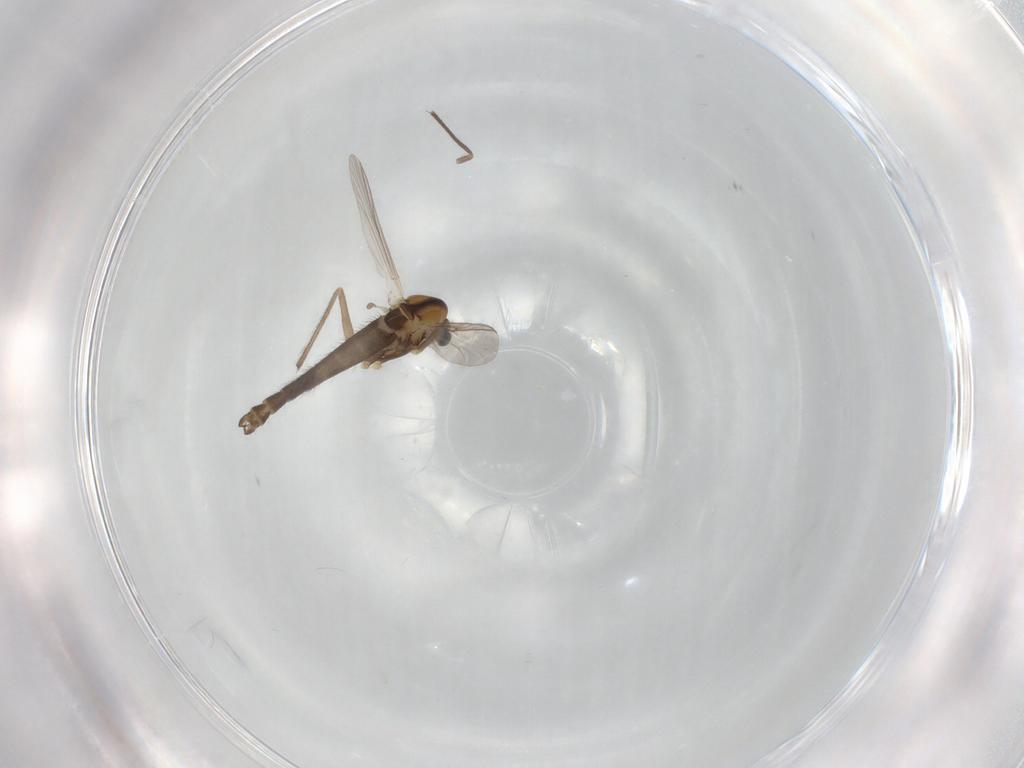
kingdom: Animalia
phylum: Arthropoda
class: Insecta
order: Diptera
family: Chironomidae
